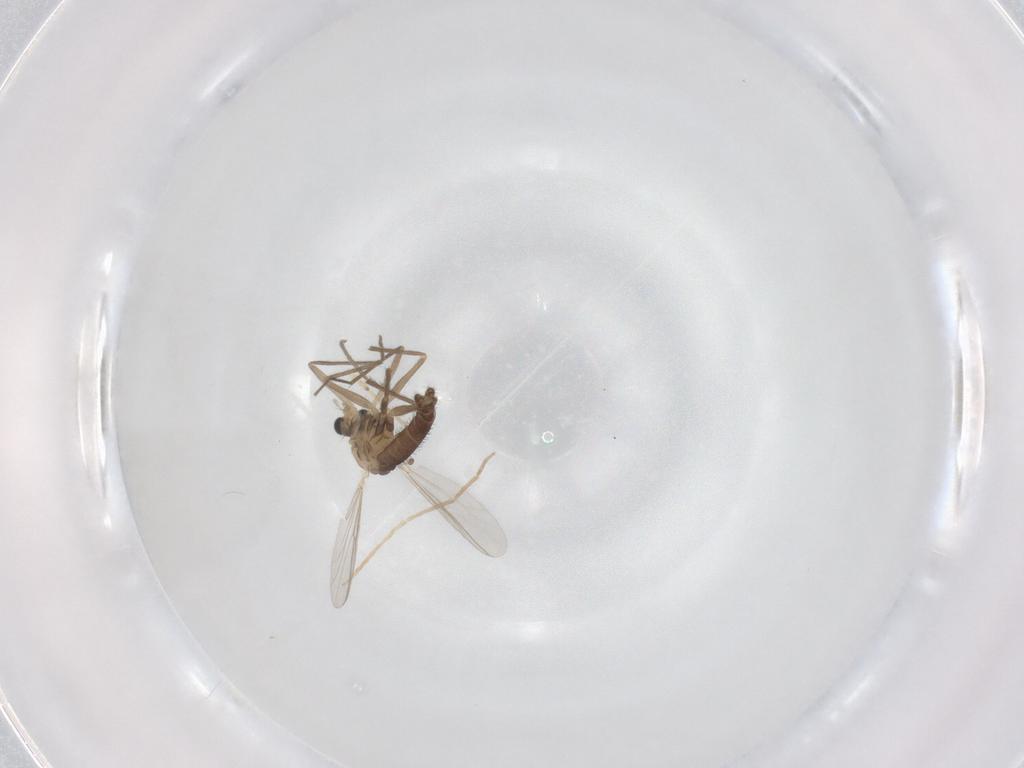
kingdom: Animalia
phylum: Arthropoda
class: Insecta
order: Diptera
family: Chironomidae
